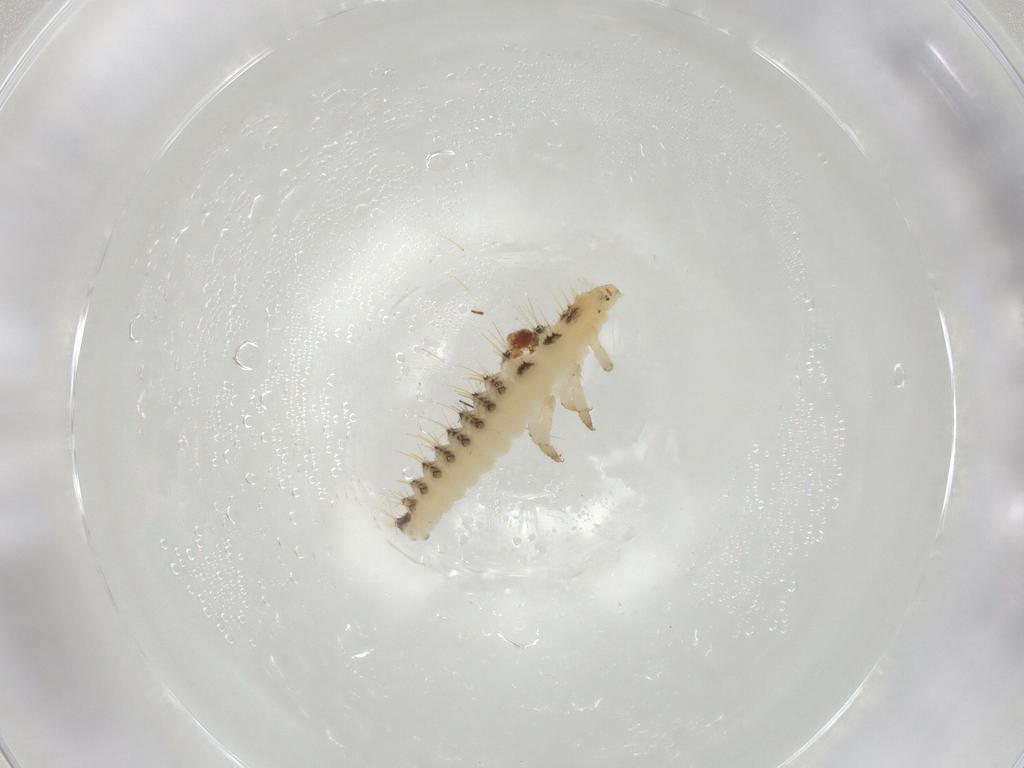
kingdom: Animalia
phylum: Arthropoda
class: Insecta
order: Coleoptera
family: Coccinellidae
